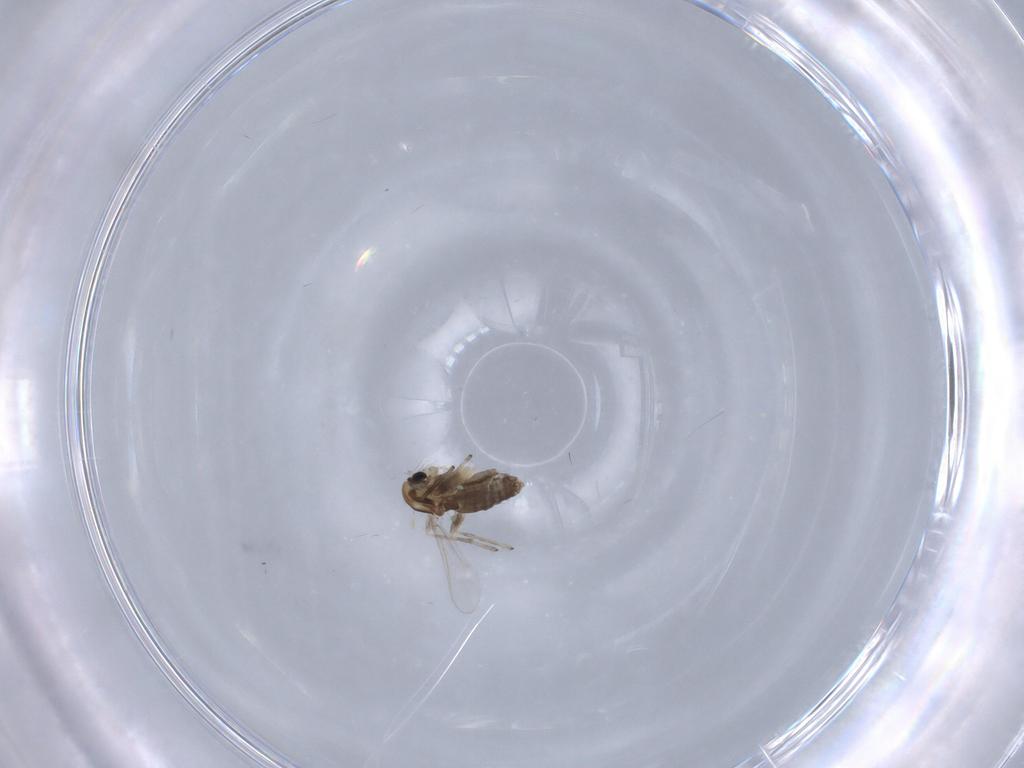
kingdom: Animalia
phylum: Arthropoda
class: Insecta
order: Diptera
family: Chironomidae
